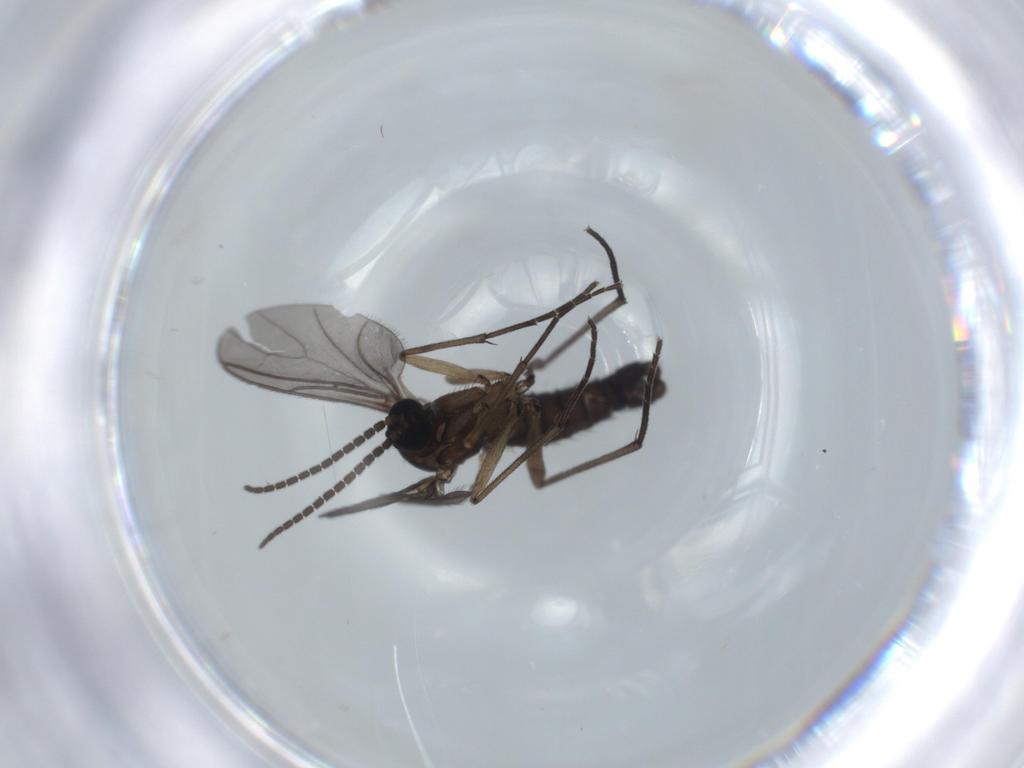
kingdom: Animalia
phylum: Arthropoda
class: Insecta
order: Diptera
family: Sciaridae
